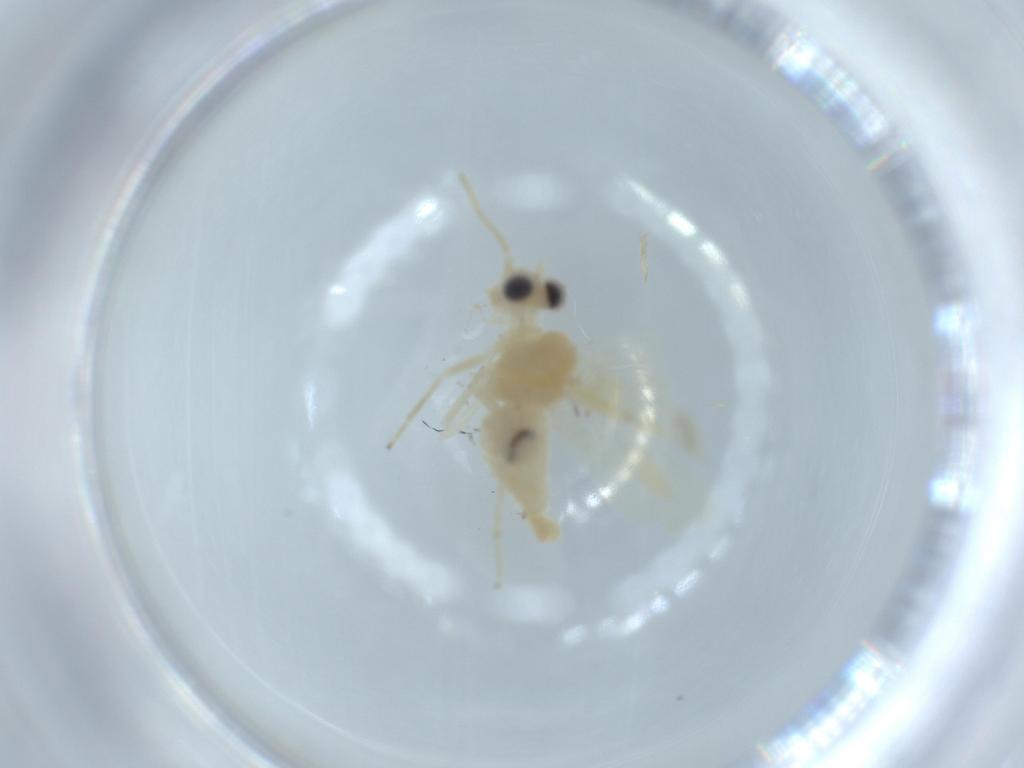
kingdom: Animalia
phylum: Arthropoda
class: Insecta
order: Psocodea
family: Caeciliusidae
